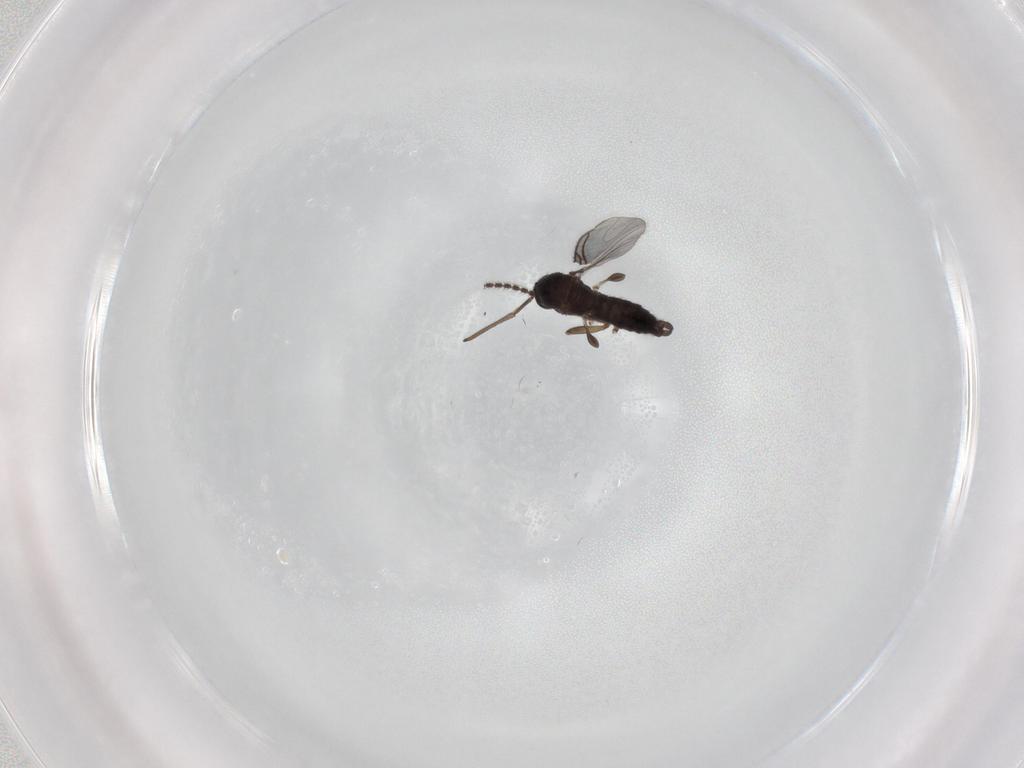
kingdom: Animalia
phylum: Arthropoda
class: Insecta
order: Diptera
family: Sciaridae
